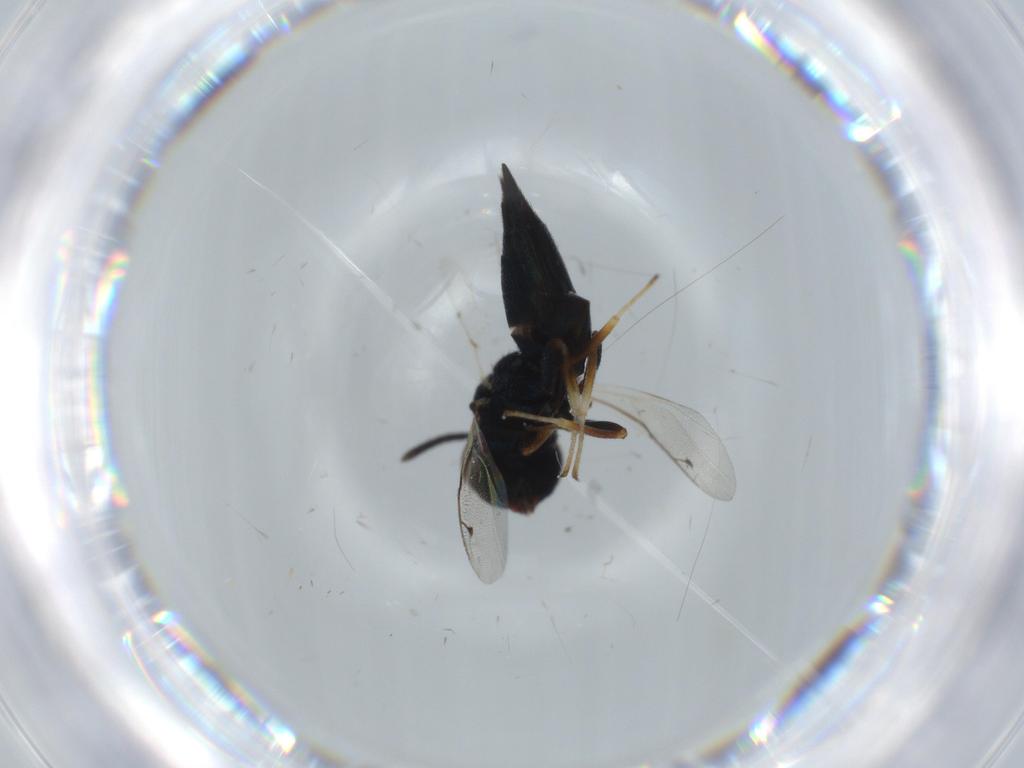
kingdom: Animalia
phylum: Arthropoda
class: Insecta
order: Hymenoptera
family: Pteromalidae
